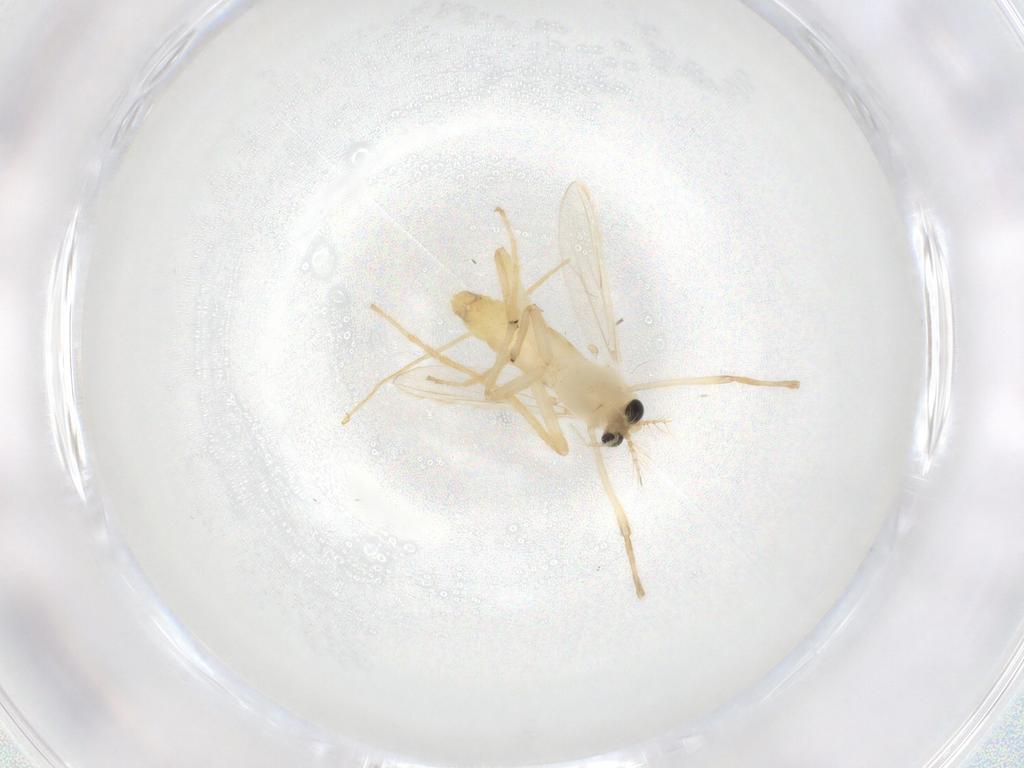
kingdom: Animalia
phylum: Arthropoda
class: Insecta
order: Diptera
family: Chironomidae
